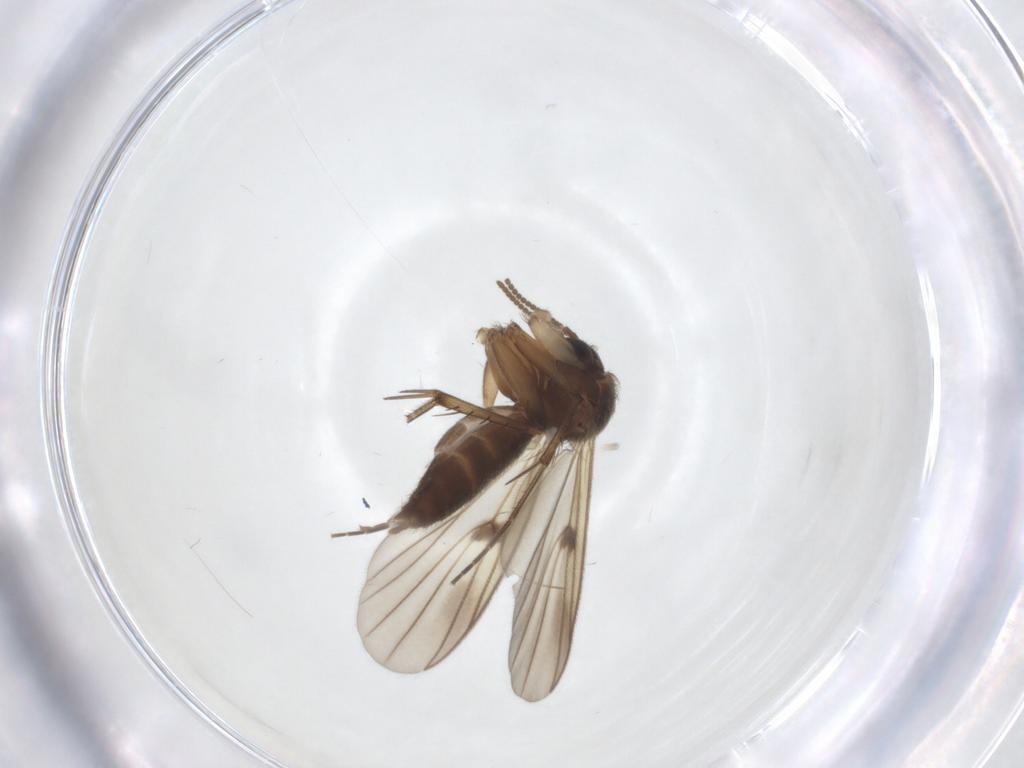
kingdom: Animalia
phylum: Arthropoda
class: Insecta
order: Diptera
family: Mycetophilidae
